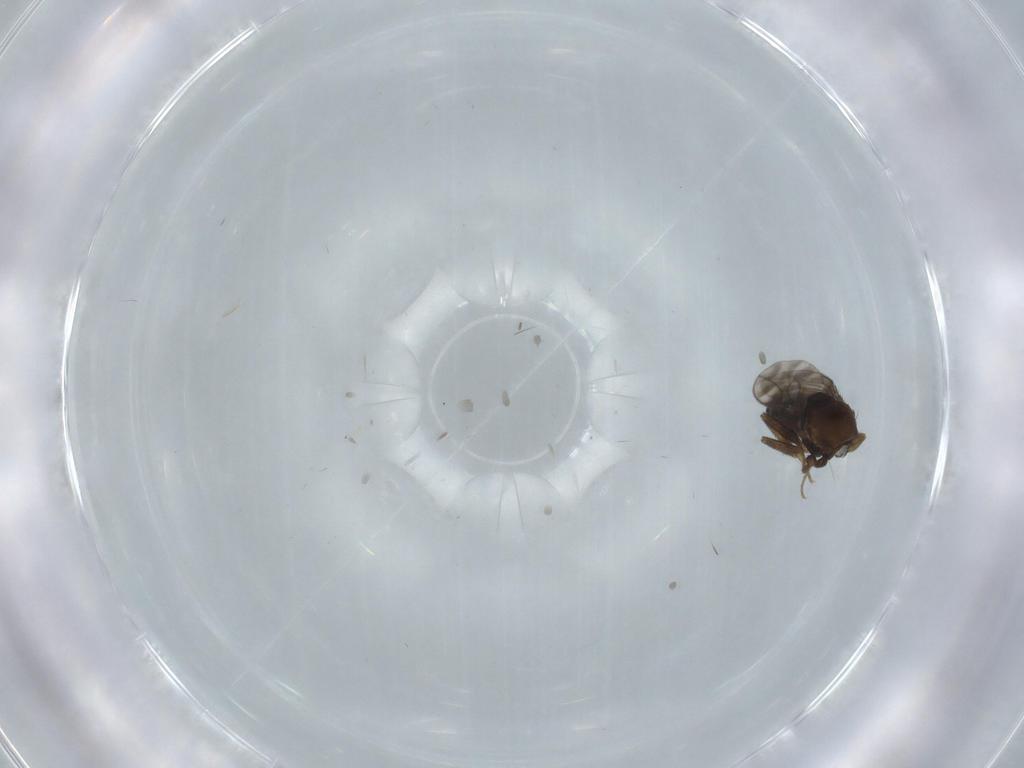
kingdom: Animalia
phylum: Arthropoda
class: Insecta
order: Diptera
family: Sphaeroceridae
